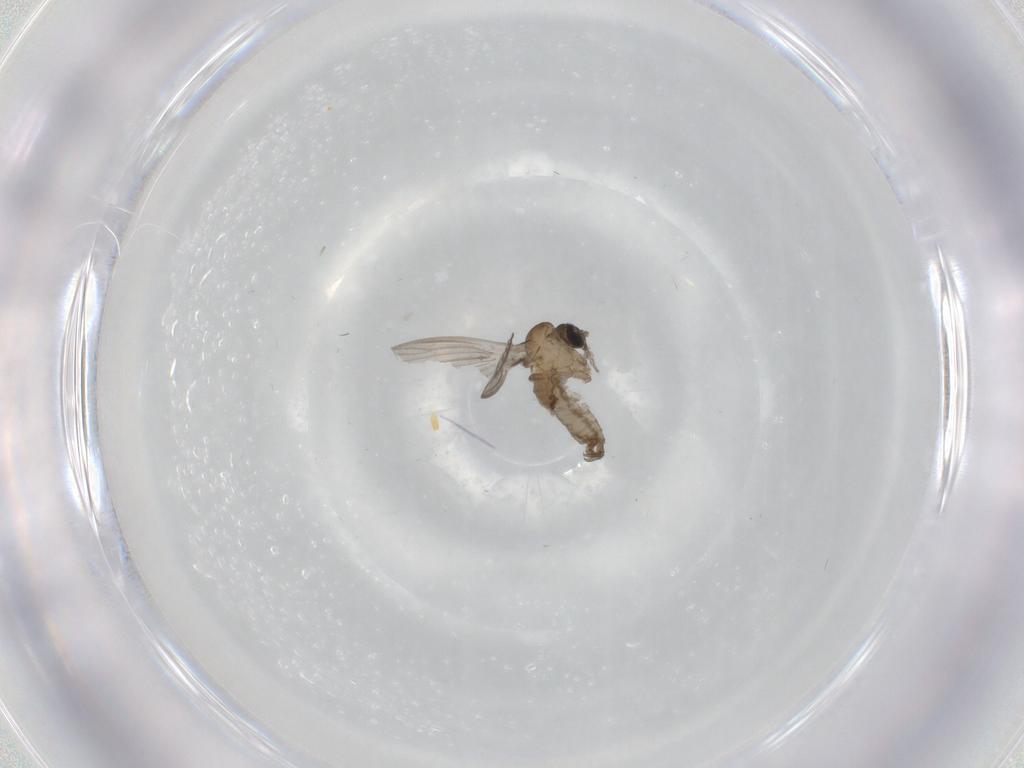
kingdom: Animalia
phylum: Arthropoda
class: Insecta
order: Diptera
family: Psychodidae
